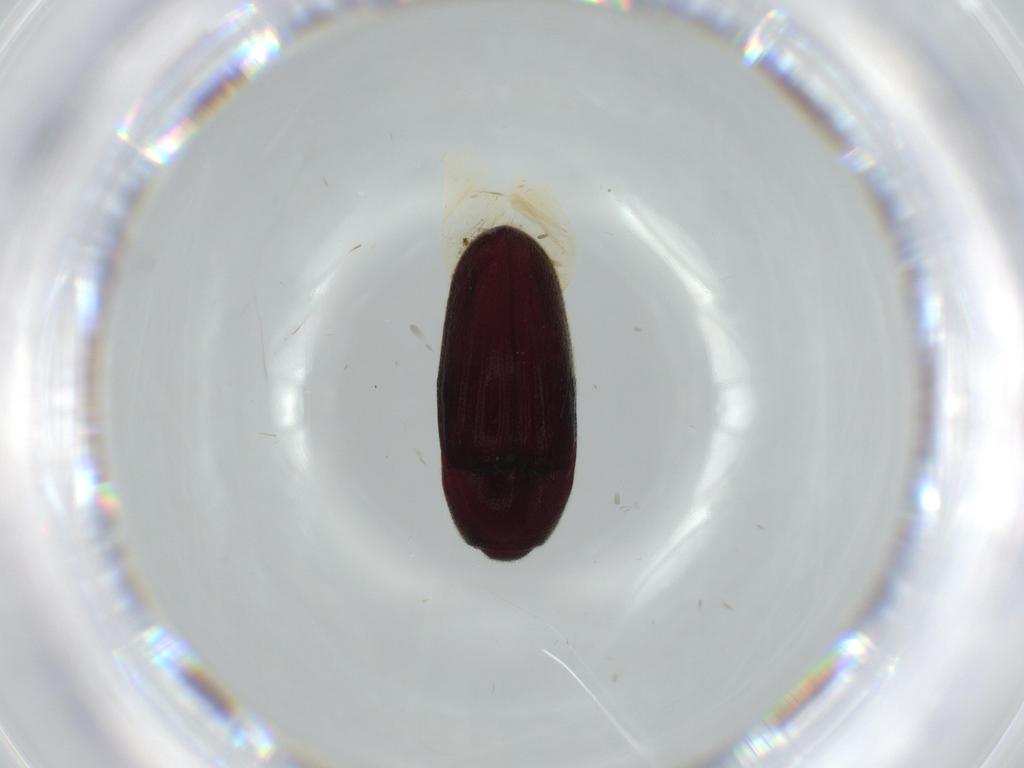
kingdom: Animalia
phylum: Arthropoda
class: Insecta
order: Coleoptera
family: Throscidae
